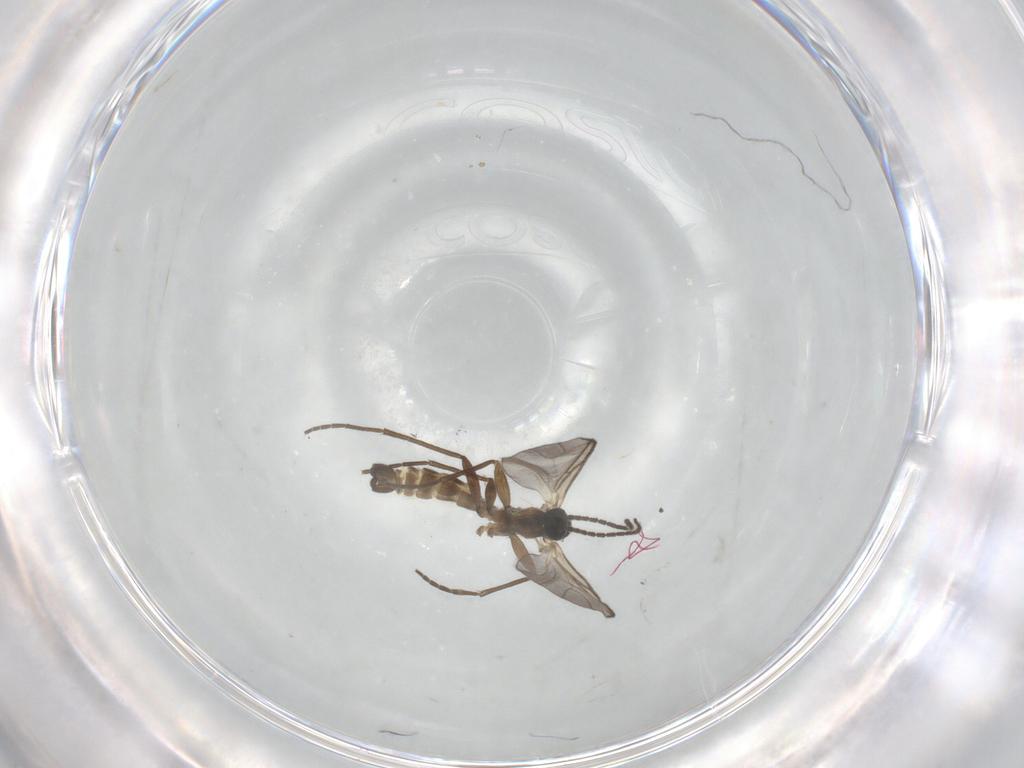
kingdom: Animalia
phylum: Arthropoda
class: Insecta
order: Diptera
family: Sciaridae
